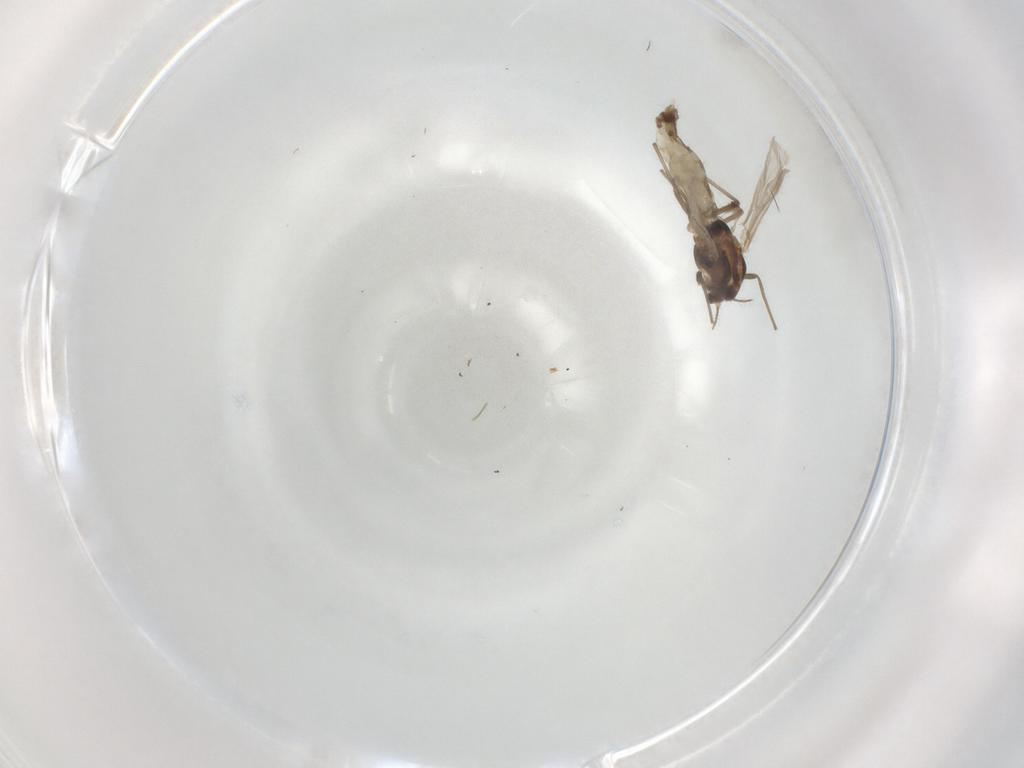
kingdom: Animalia
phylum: Arthropoda
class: Insecta
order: Diptera
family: Chironomidae
